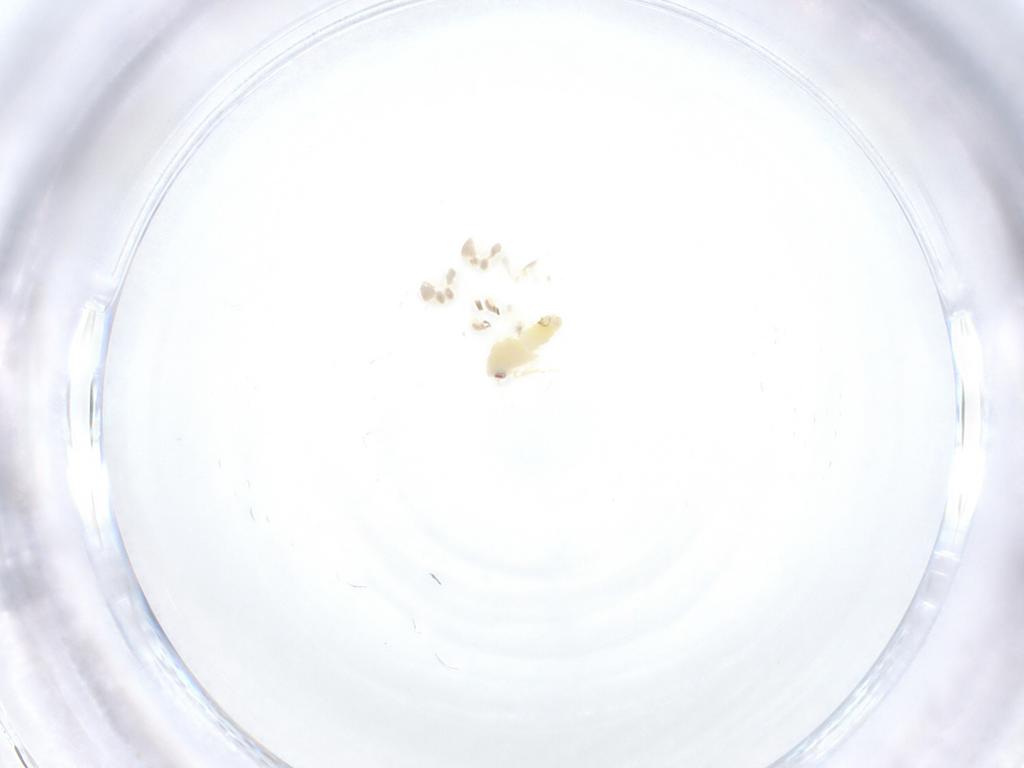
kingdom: Animalia
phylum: Arthropoda
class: Insecta
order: Hemiptera
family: Aleyrodidae
